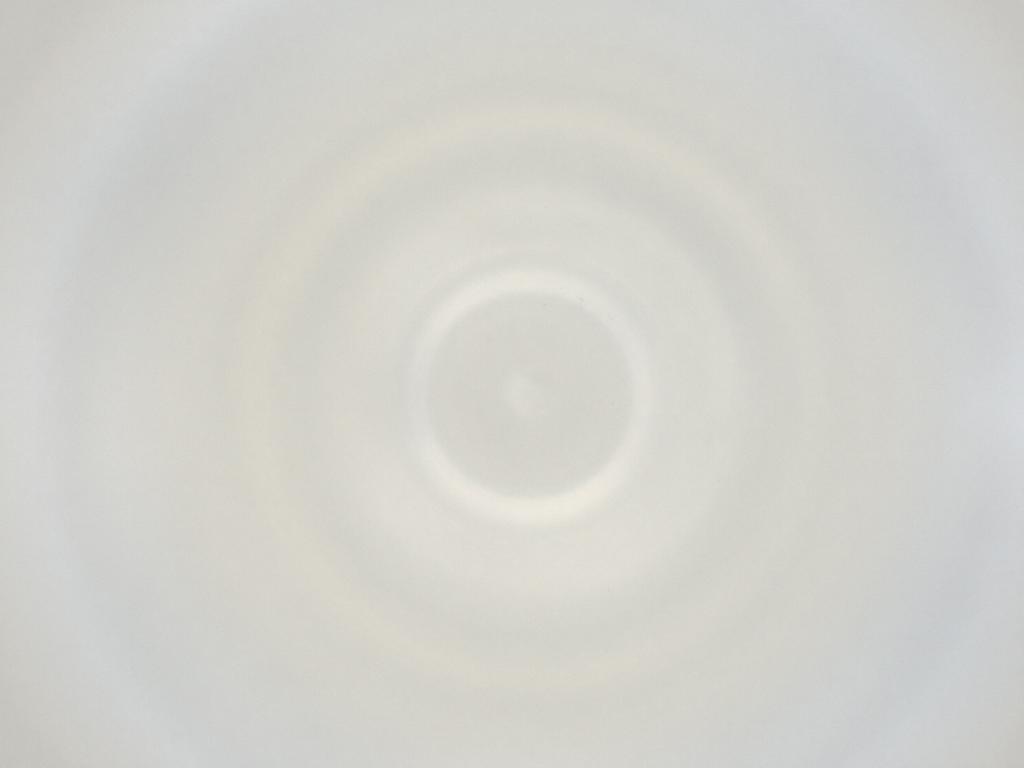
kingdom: Animalia
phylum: Arthropoda
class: Insecta
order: Diptera
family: Cecidomyiidae
